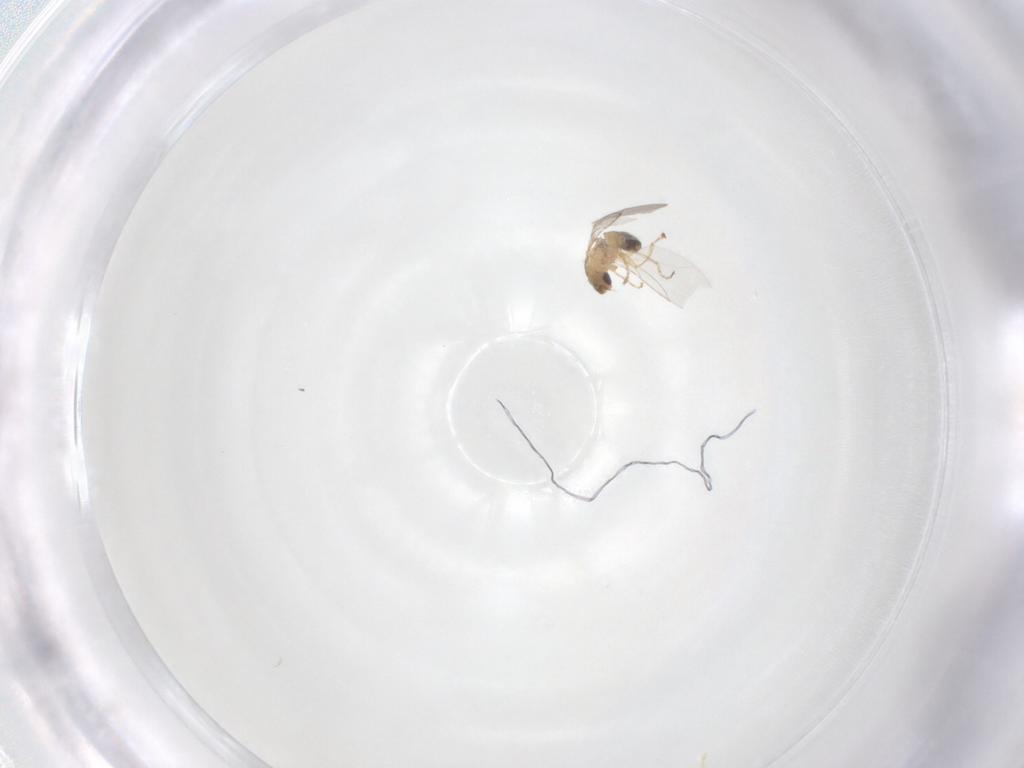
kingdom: Animalia
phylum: Arthropoda
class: Insecta
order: Diptera
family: Agromyzidae
